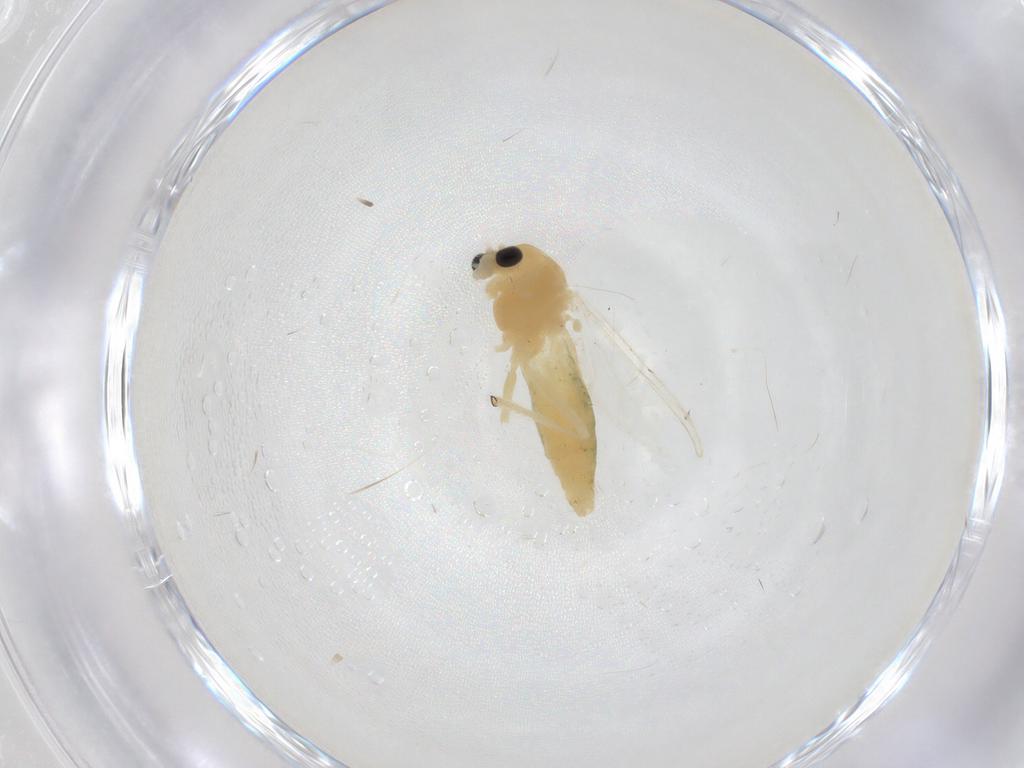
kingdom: Animalia
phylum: Arthropoda
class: Insecta
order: Diptera
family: Chironomidae
